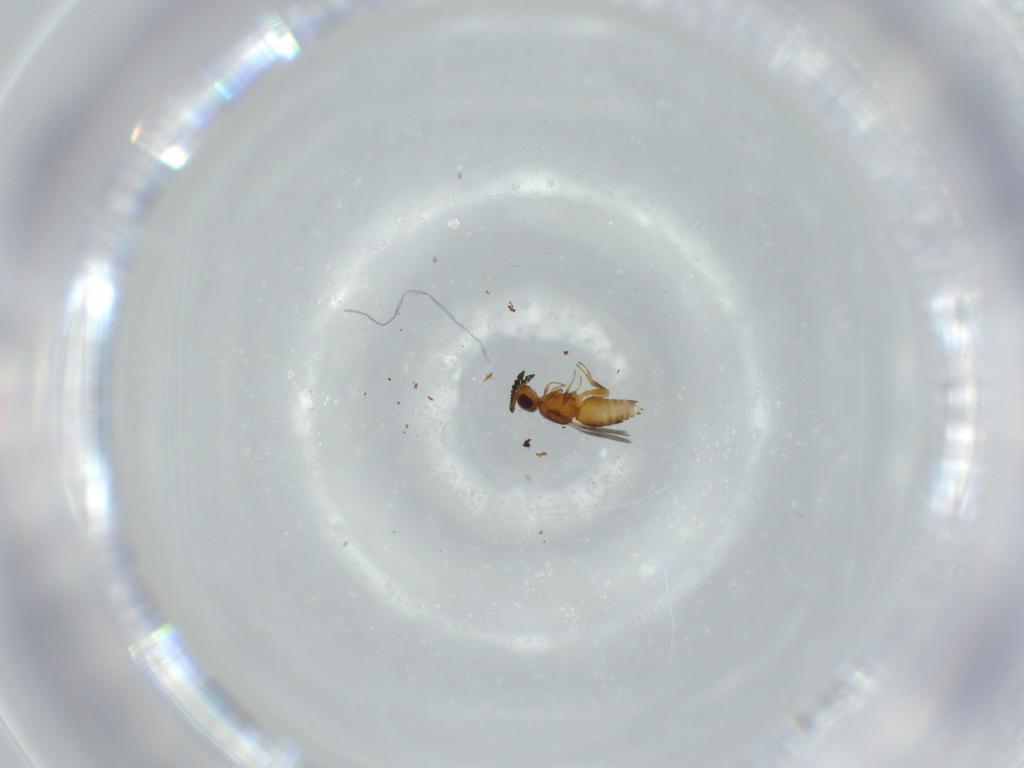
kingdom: Animalia
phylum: Arthropoda
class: Insecta
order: Hymenoptera
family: Ceraphronidae
